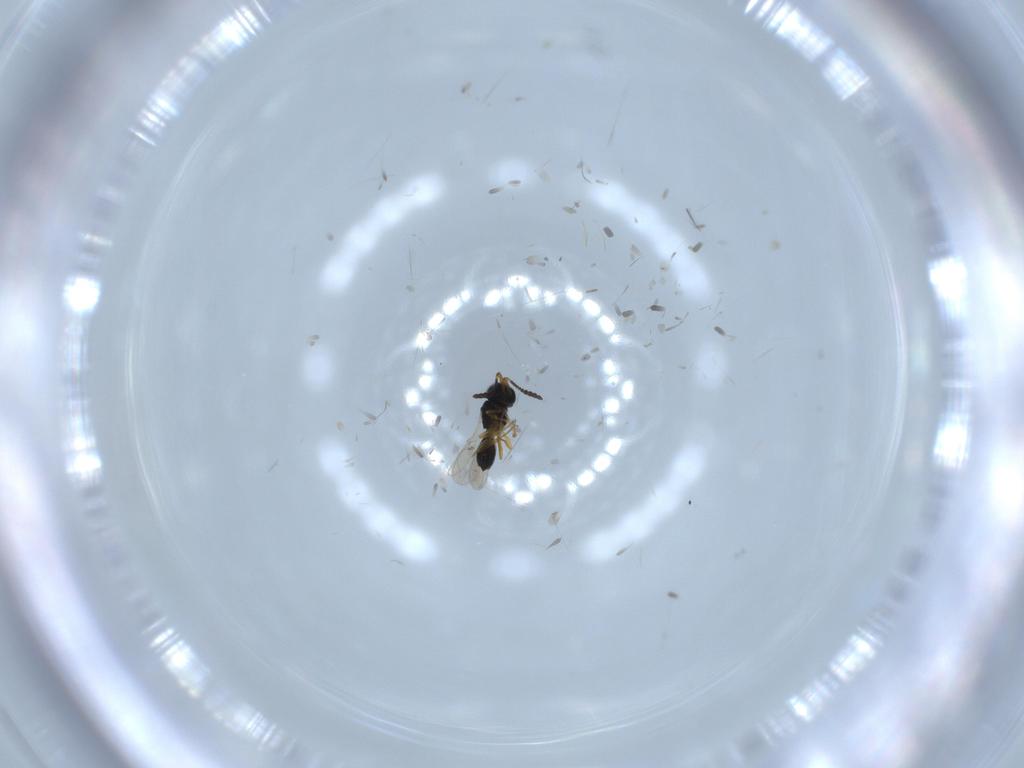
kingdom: Animalia
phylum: Arthropoda
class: Insecta
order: Hymenoptera
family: Scelionidae
